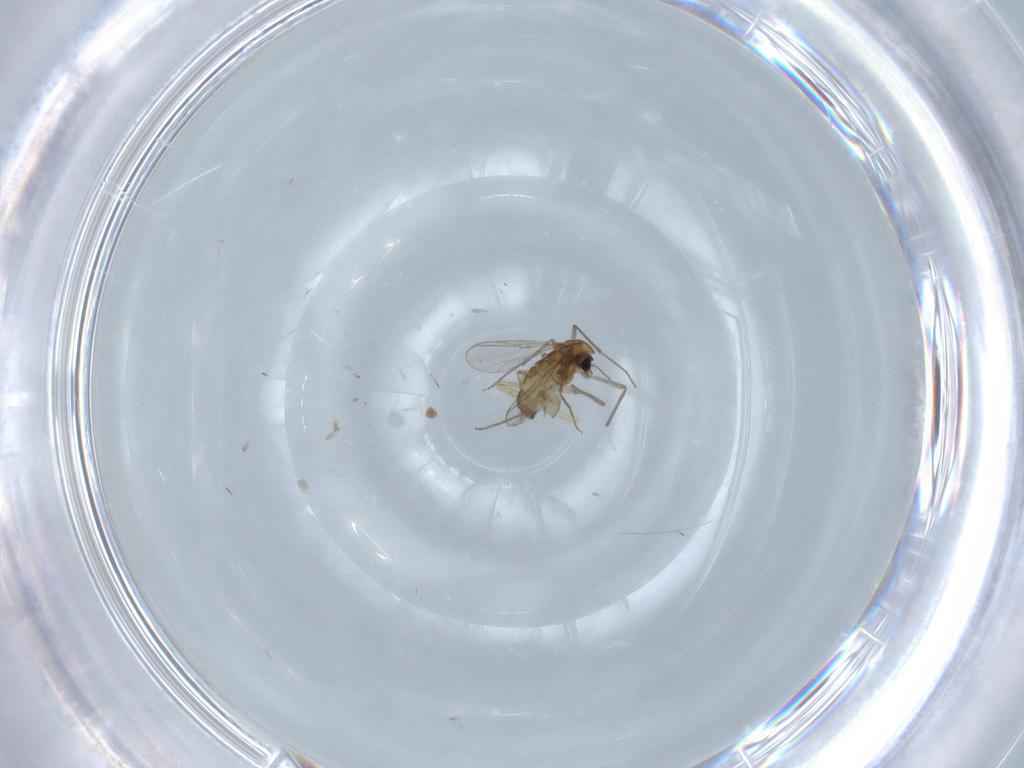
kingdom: Animalia
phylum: Arthropoda
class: Insecta
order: Diptera
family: Chironomidae
